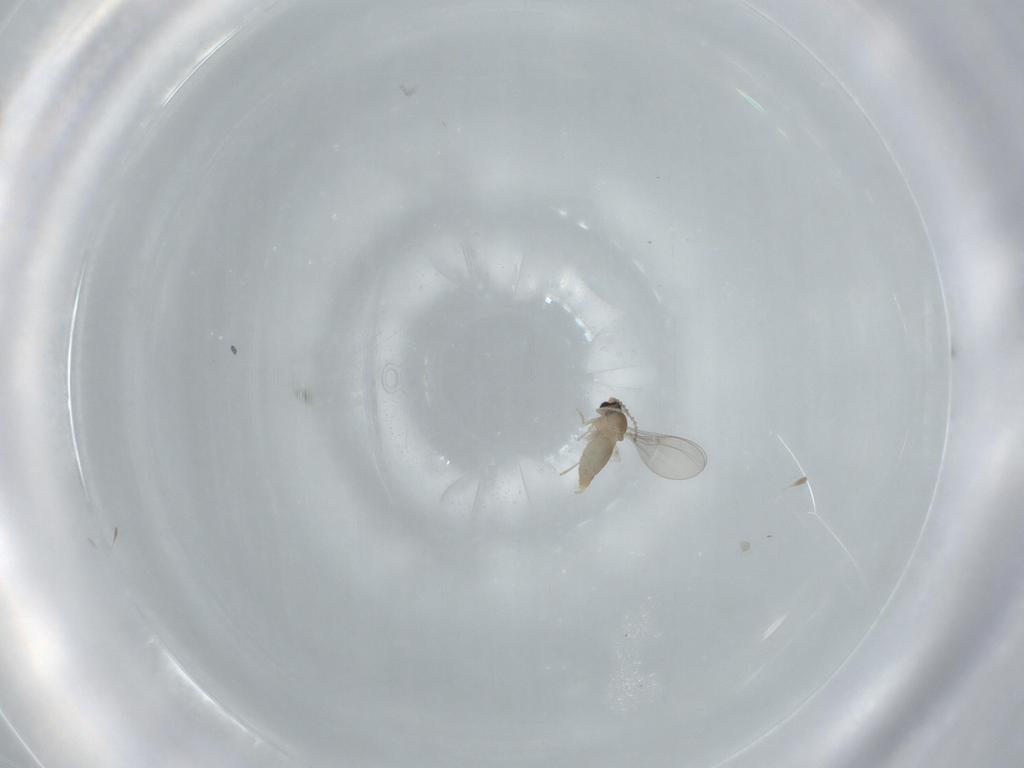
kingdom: Animalia
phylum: Arthropoda
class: Insecta
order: Diptera
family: Cecidomyiidae
